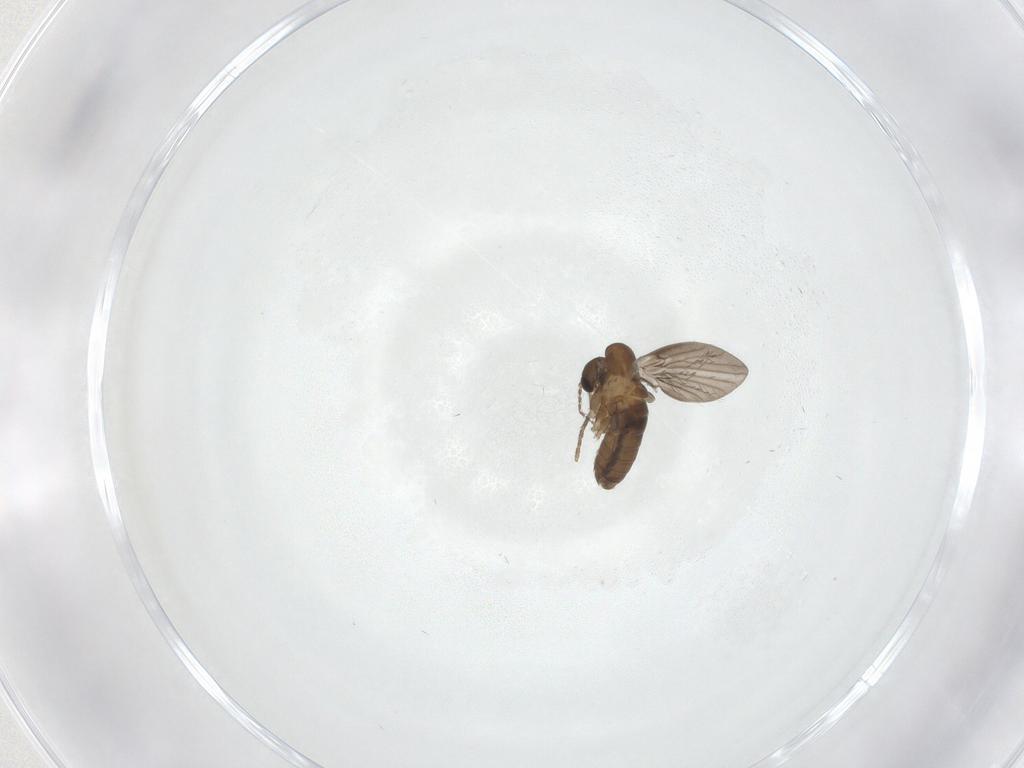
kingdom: Animalia
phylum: Arthropoda
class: Insecta
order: Diptera
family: Psychodidae
